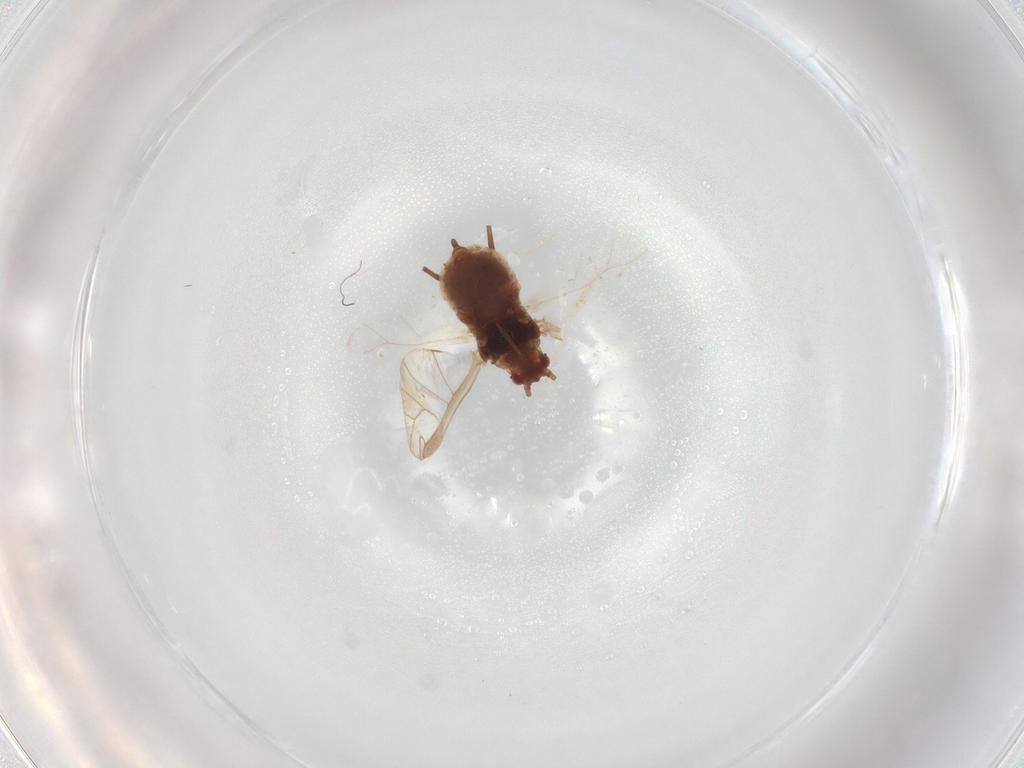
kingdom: Animalia
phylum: Arthropoda
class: Insecta
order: Hemiptera
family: Aphididae
